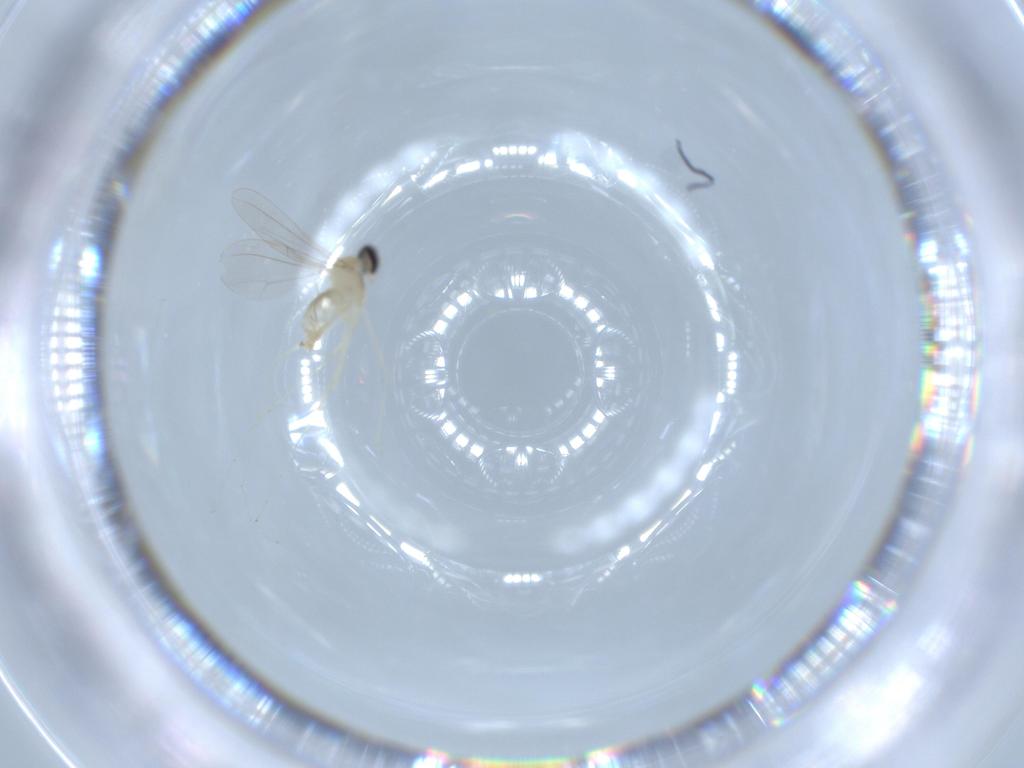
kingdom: Animalia
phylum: Arthropoda
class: Insecta
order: Diptera
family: Cecidomyiidae
